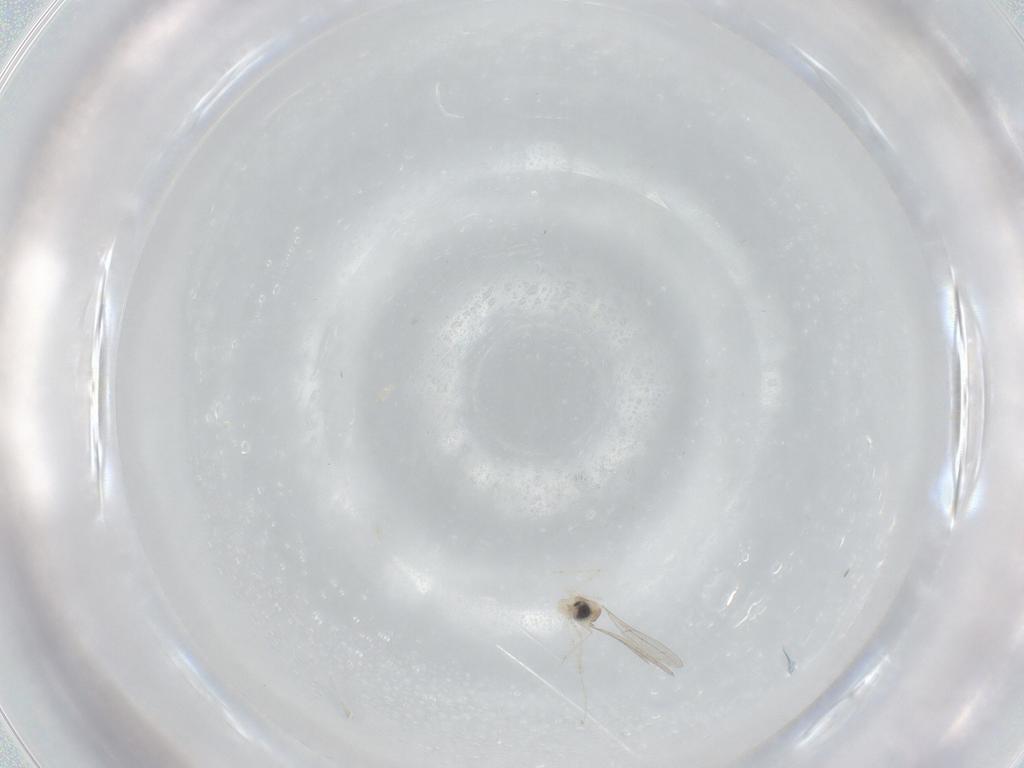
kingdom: Animalia
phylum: Arthropoda
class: Insecta
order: Diptera
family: Cecidomyiidae
